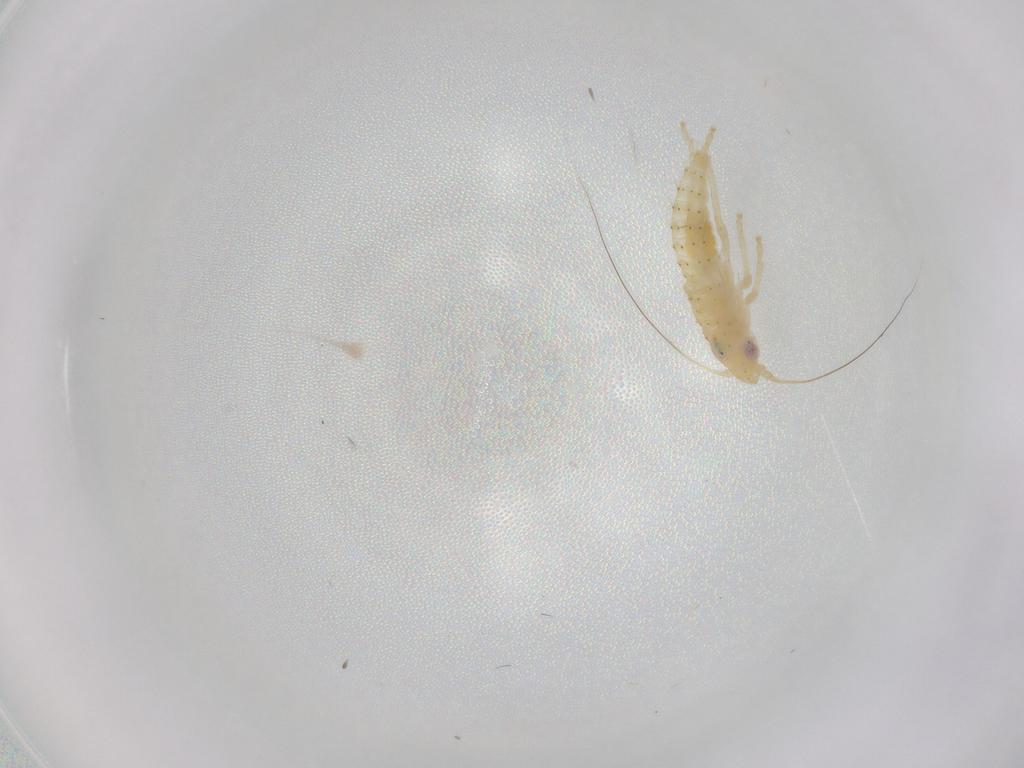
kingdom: Animalia
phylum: Arthropoda
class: Insecta
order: Hemiptera
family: Cicadellidae
